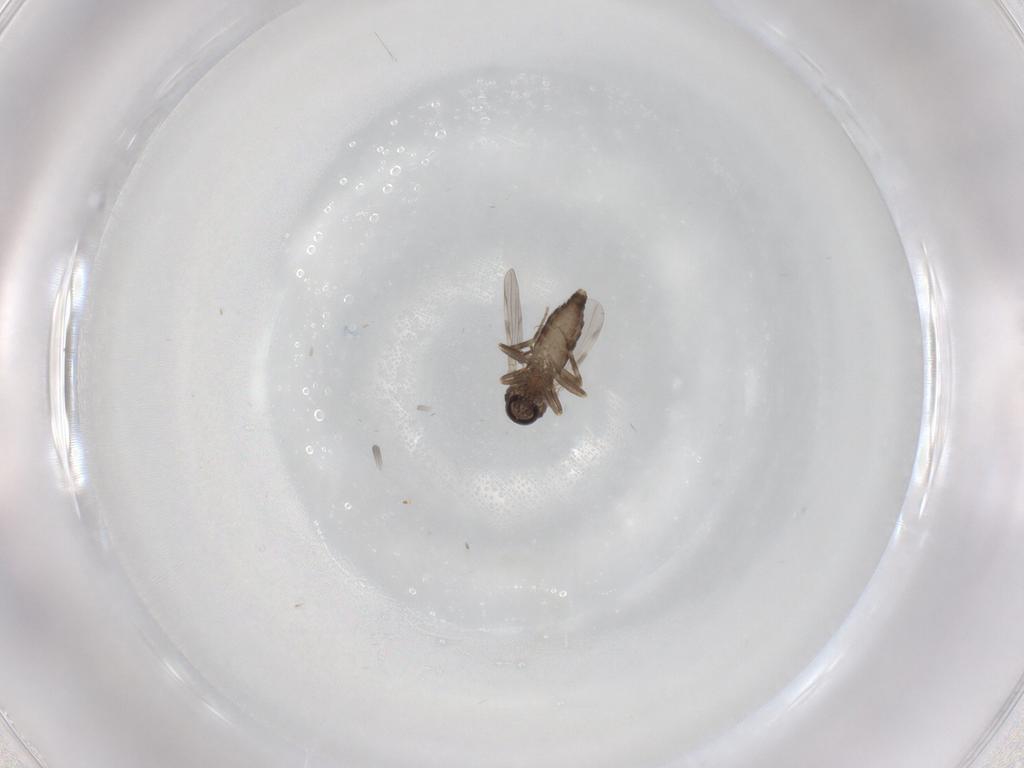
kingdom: Animalia
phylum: Arthropoda
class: Insecta
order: Diptera
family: Ceratopogonidae
